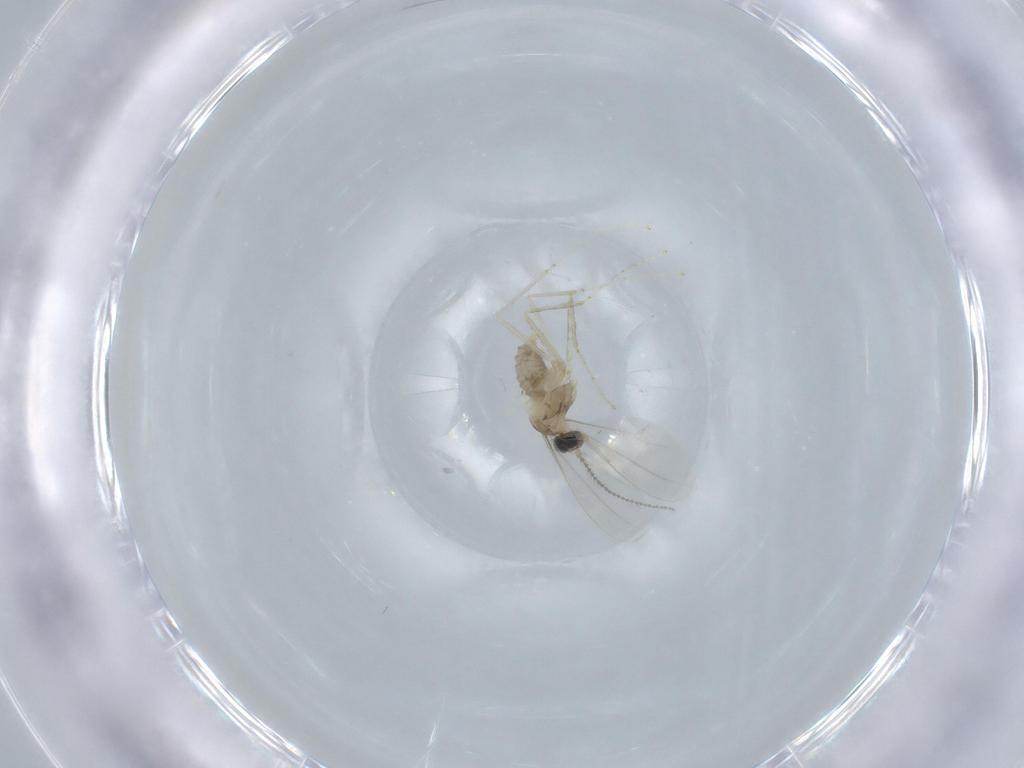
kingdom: Animalia
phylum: Arthropoda
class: Insecta
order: Diptera
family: Cecidomyiidae
